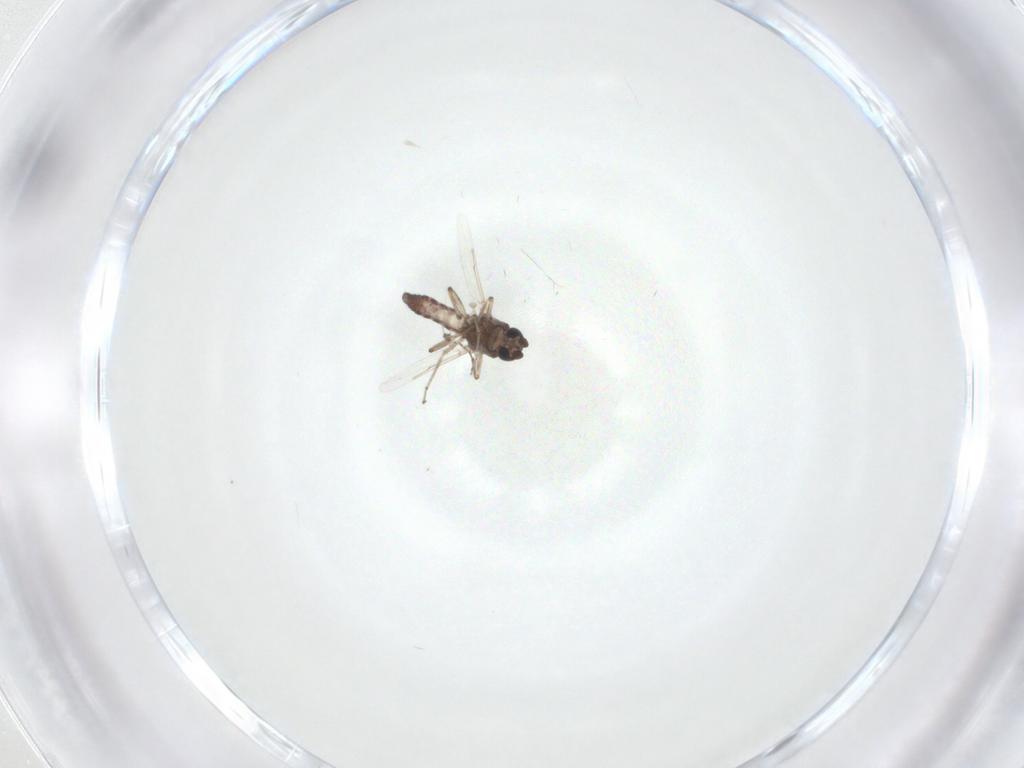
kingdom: Animalia
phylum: Arthropoda
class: Insecta
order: Diptera
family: Ceratopogonidae
